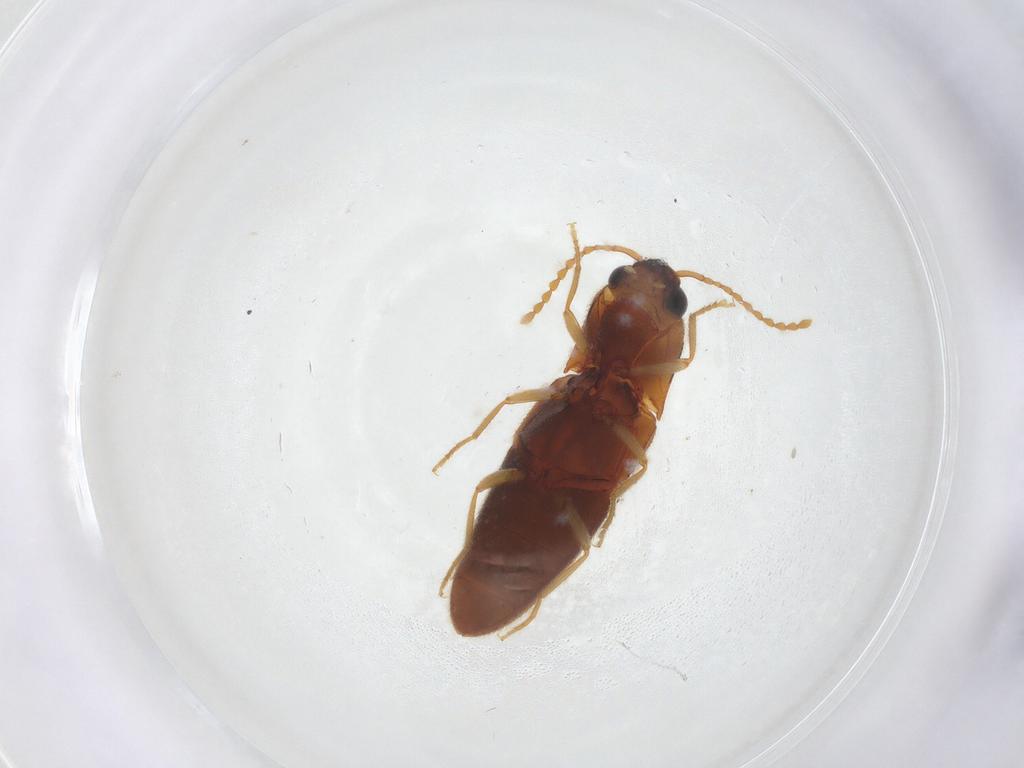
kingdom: Animalia
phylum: Arthropoda
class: Insecta
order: Coleoptera
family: Elateridae
